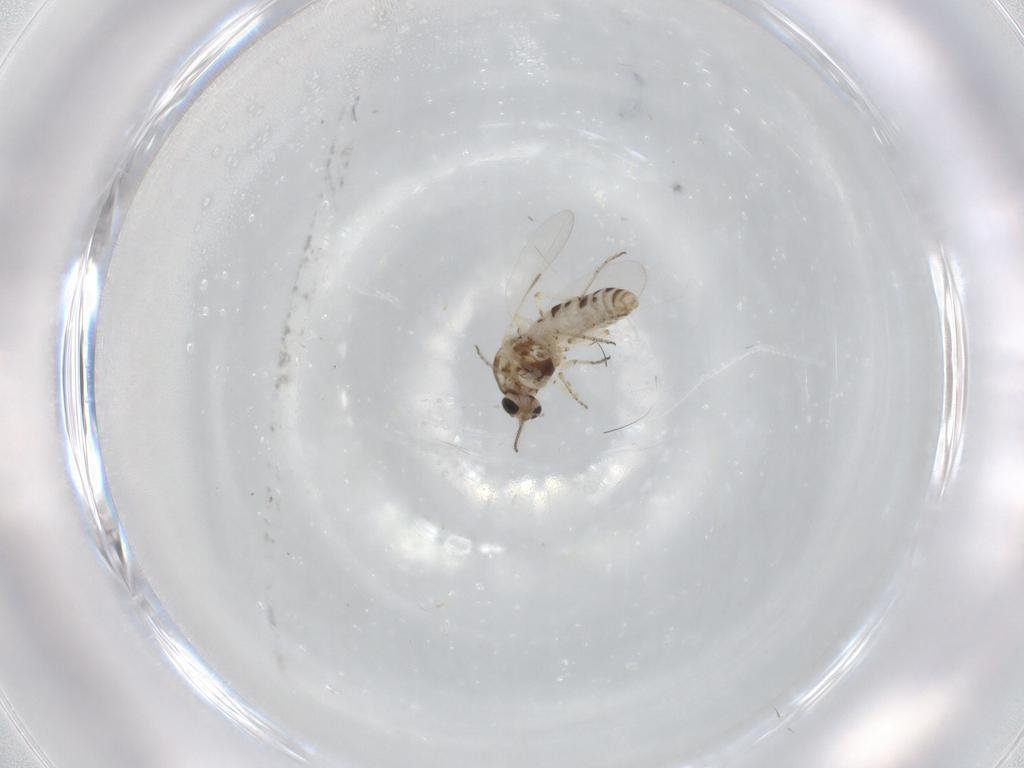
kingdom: Animalia
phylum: Arthropoda
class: Insecta
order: Diptera
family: Ceratopogonidae
